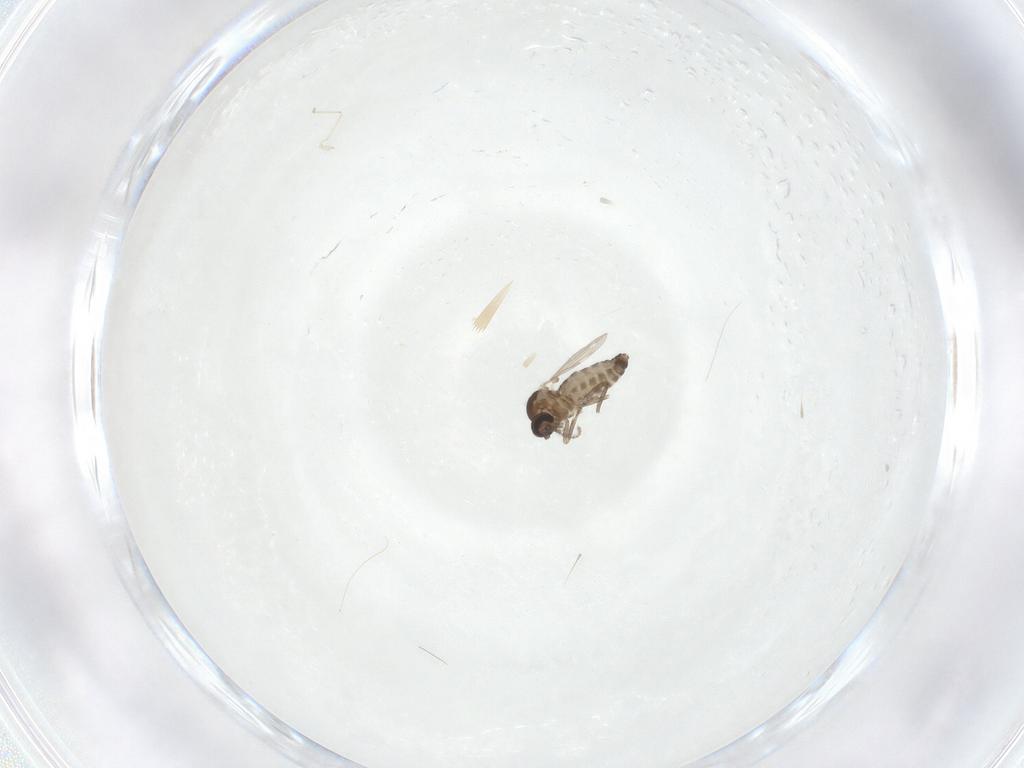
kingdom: Animalia
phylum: Arthropoda
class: Insecta
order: Diptera
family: Ceratopogonidae
